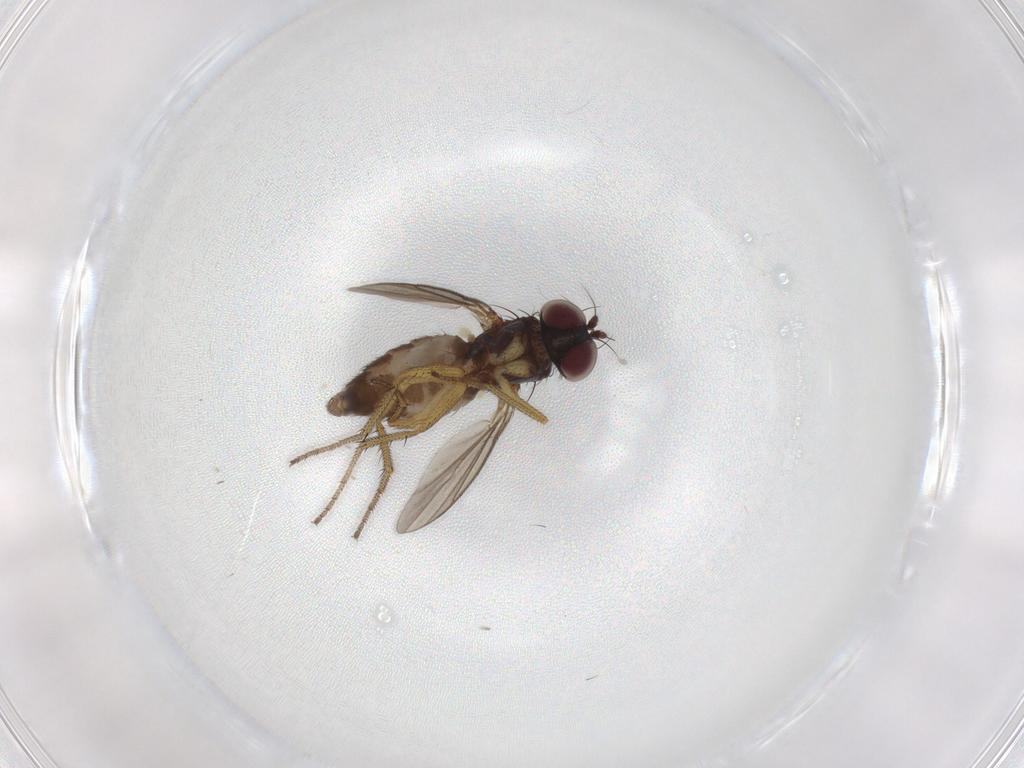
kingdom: Animalia
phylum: Arthropoda
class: Insecta
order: Diptera
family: Dolichopodidae
